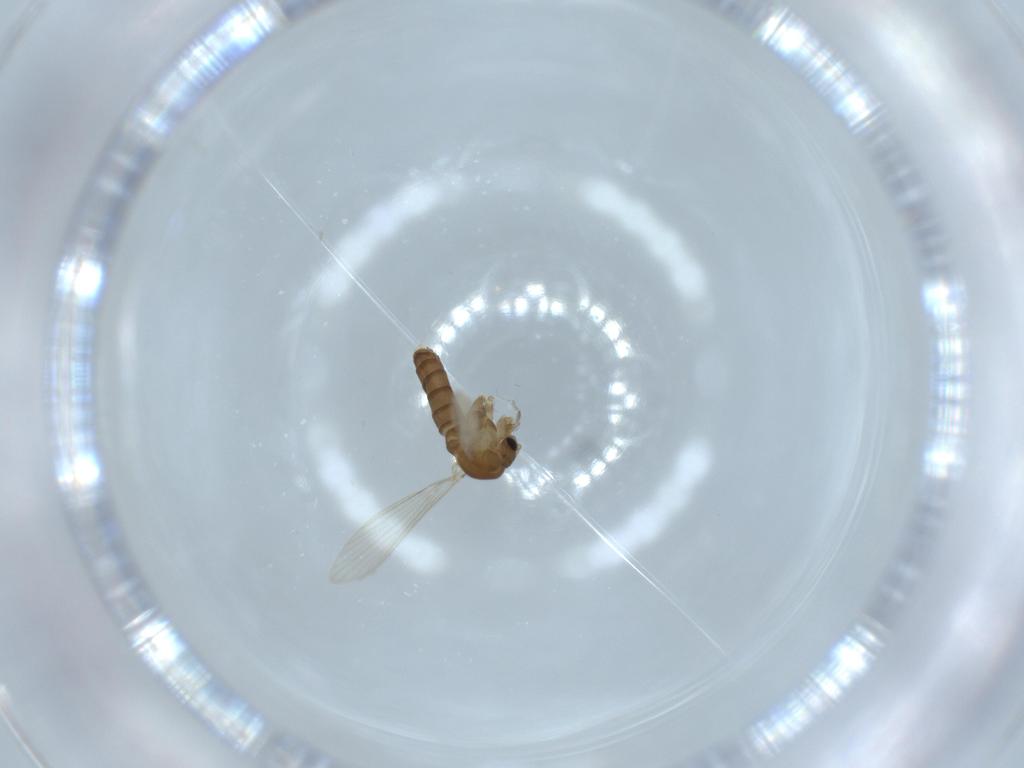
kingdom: Animalia
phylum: Arthropoda
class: Insecta
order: Diptera
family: Psychodidae
